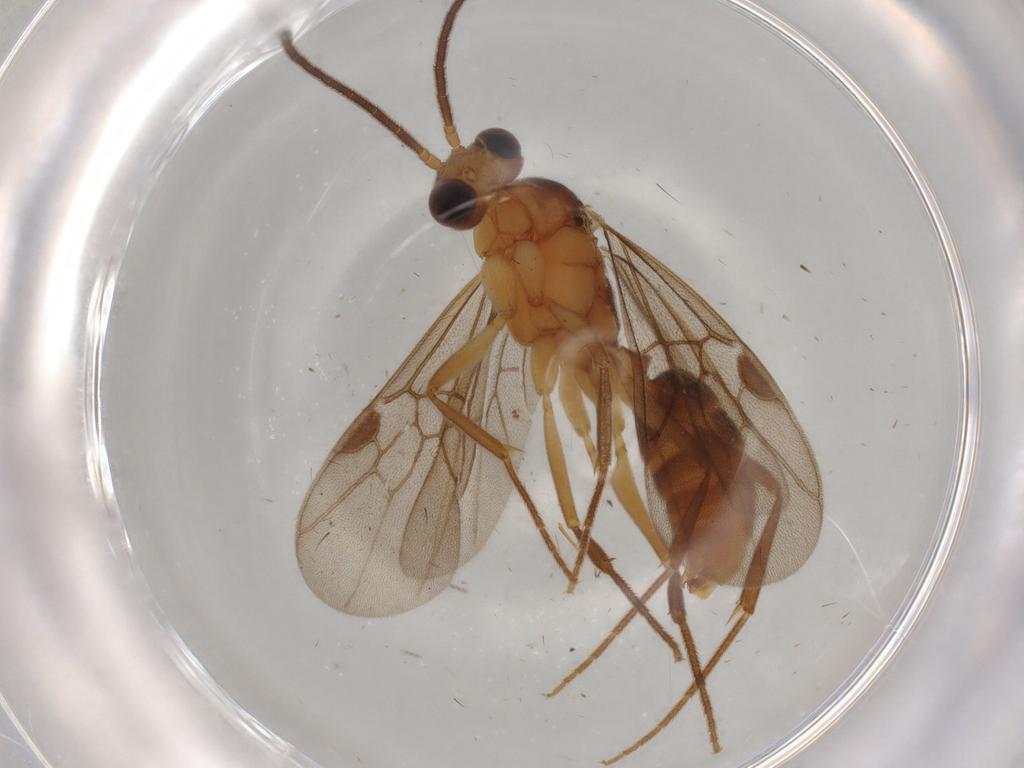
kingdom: Animalia
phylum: Arthropoda
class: Insecta
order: Hymenoptera
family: Formicidae
